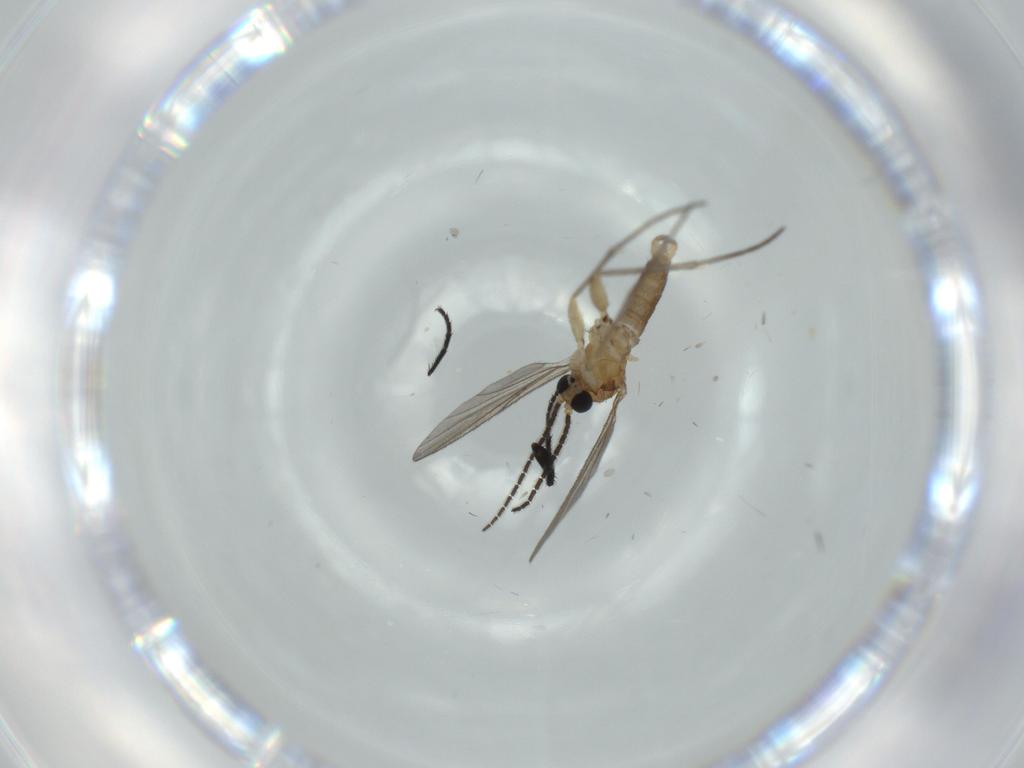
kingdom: Animalia
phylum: Arthropoda
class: Insecta
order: Diptera
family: Sciaridae
